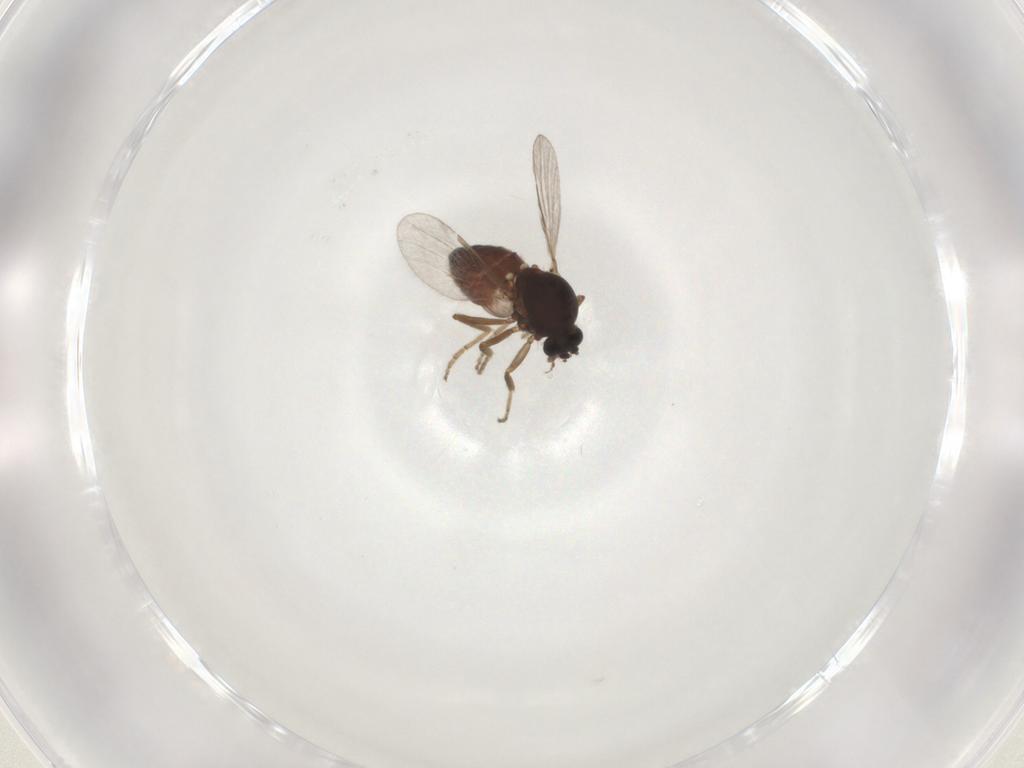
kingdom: Animalia
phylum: Arthropoda
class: Insecta
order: Diptera
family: Ceratopogonidae
